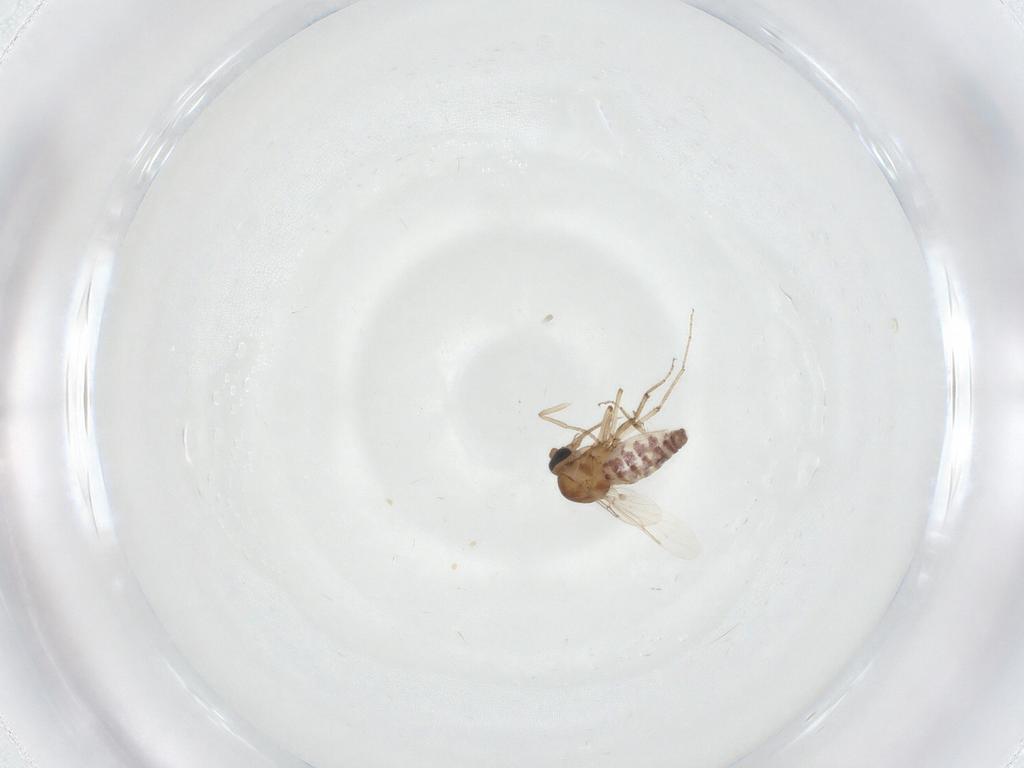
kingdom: Animalia
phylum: Arthropoda
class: Insecta
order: Diptera
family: Ceratopogonidae
